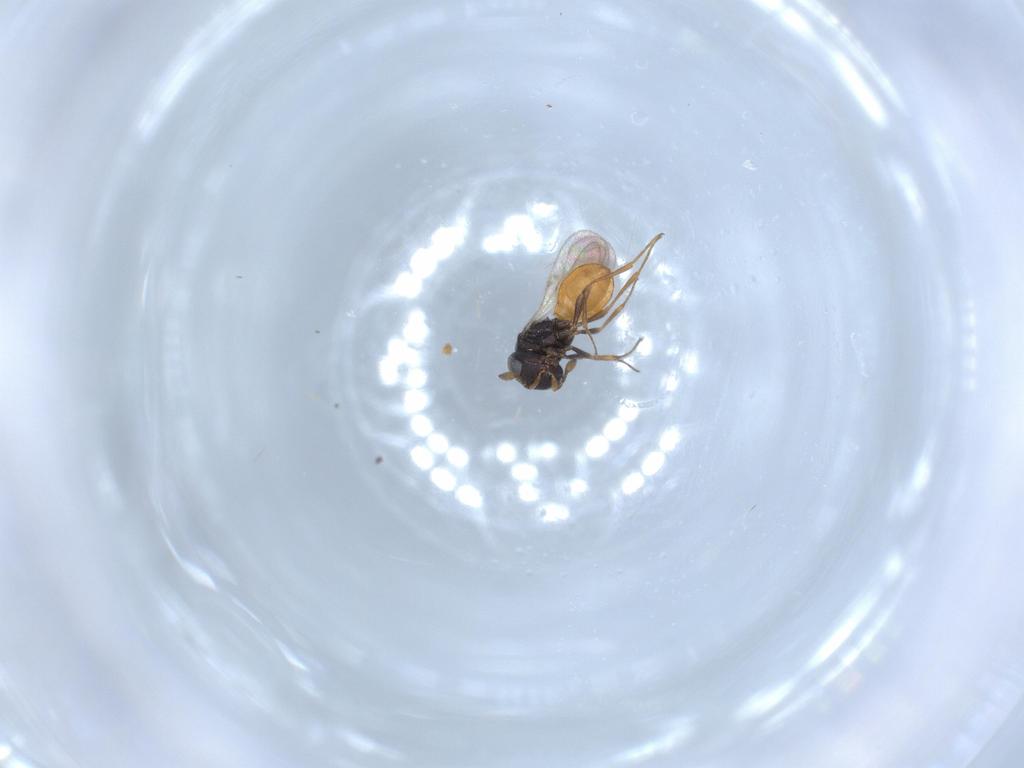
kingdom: Animalia
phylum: Arthropoda
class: Insecta
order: Hymenoptera
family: Scelionidae
